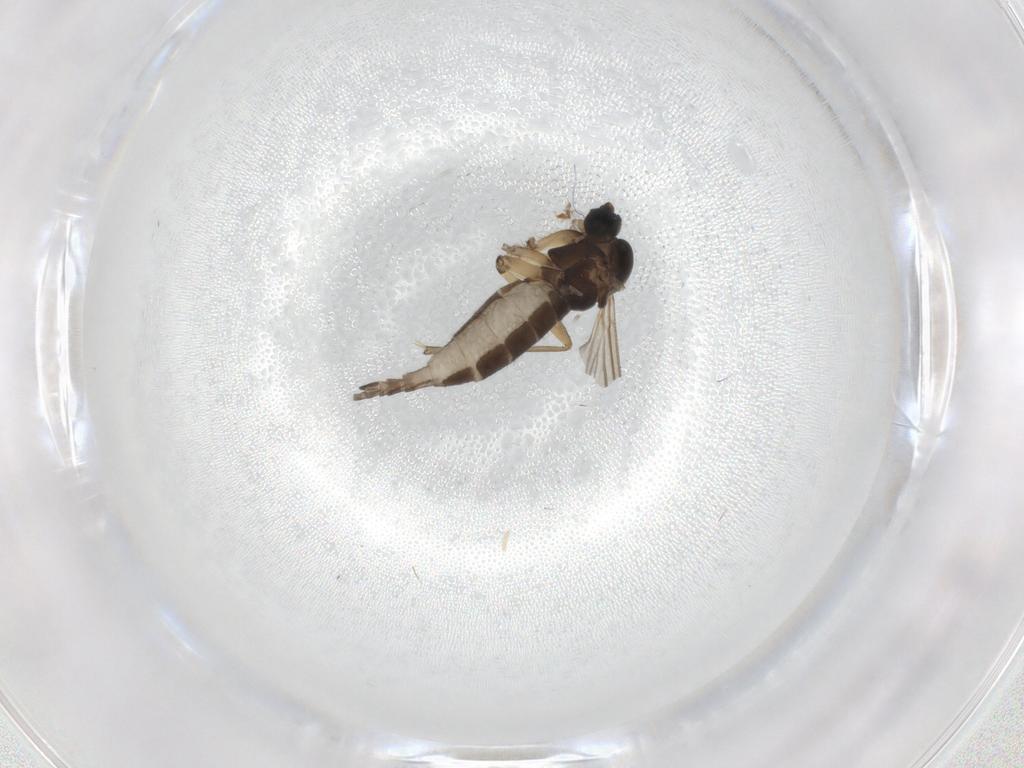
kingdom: Animalia
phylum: Arthropoda
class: Insecta
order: Diptera
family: Sciaridae
